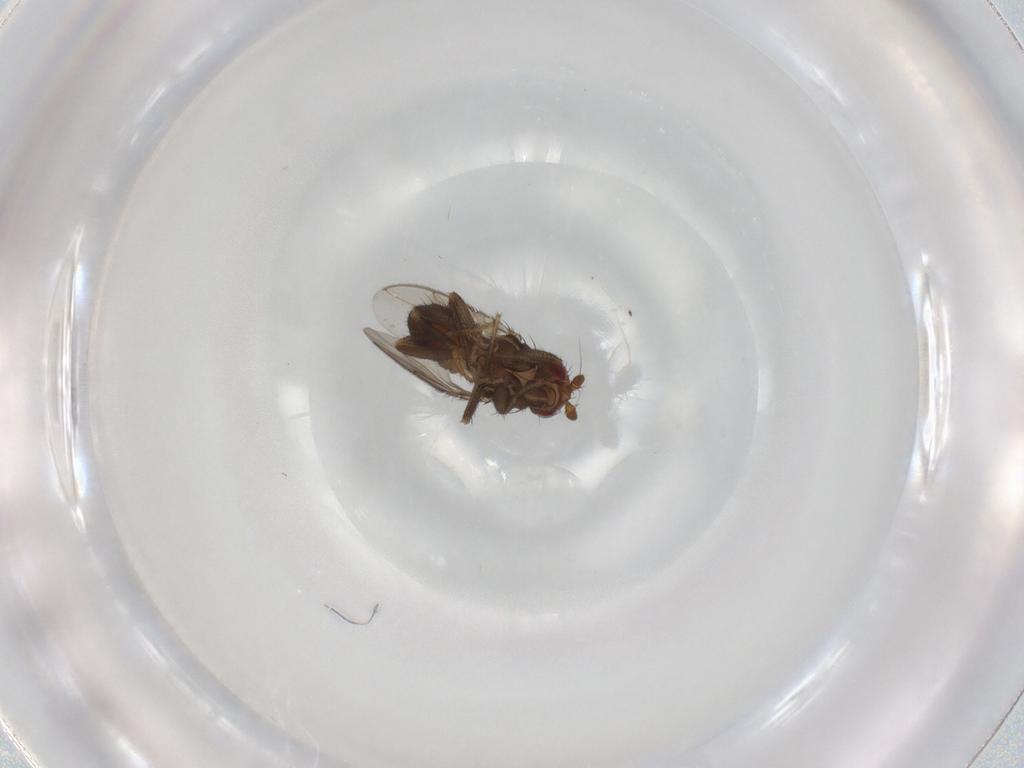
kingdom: Animalia
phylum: Arthropoda
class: Insecta
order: Diptera
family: Sphaeroceridae
